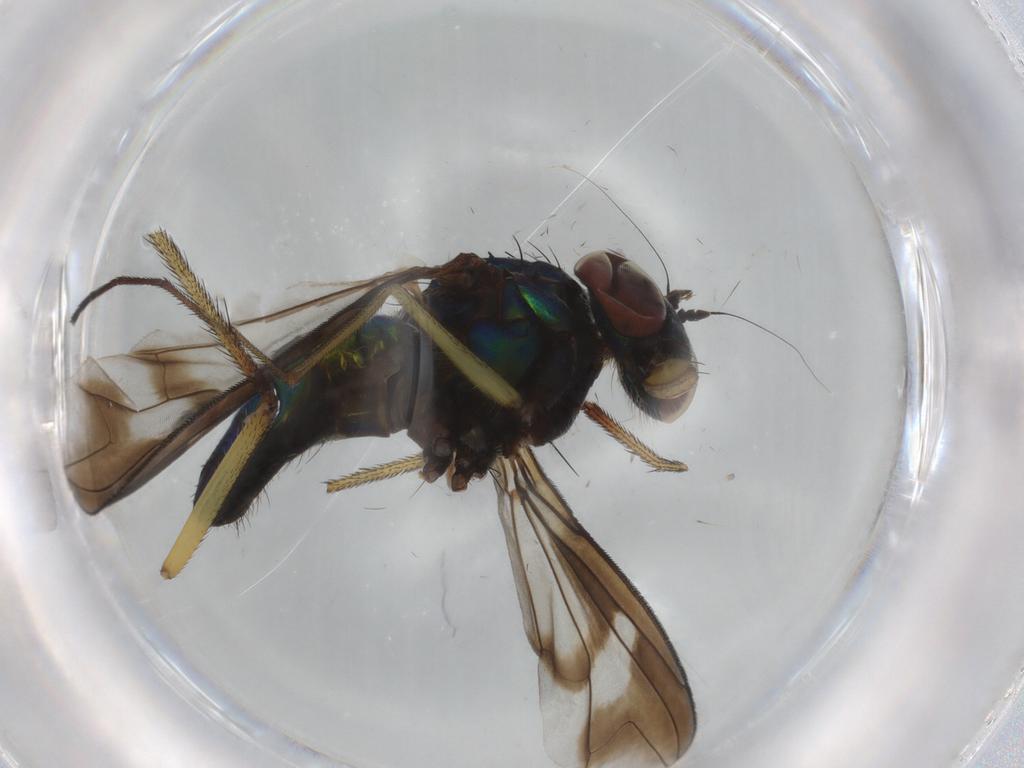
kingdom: Animalia
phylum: Arthropoda
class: Insecta
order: Diptera
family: Dolichopodidae
